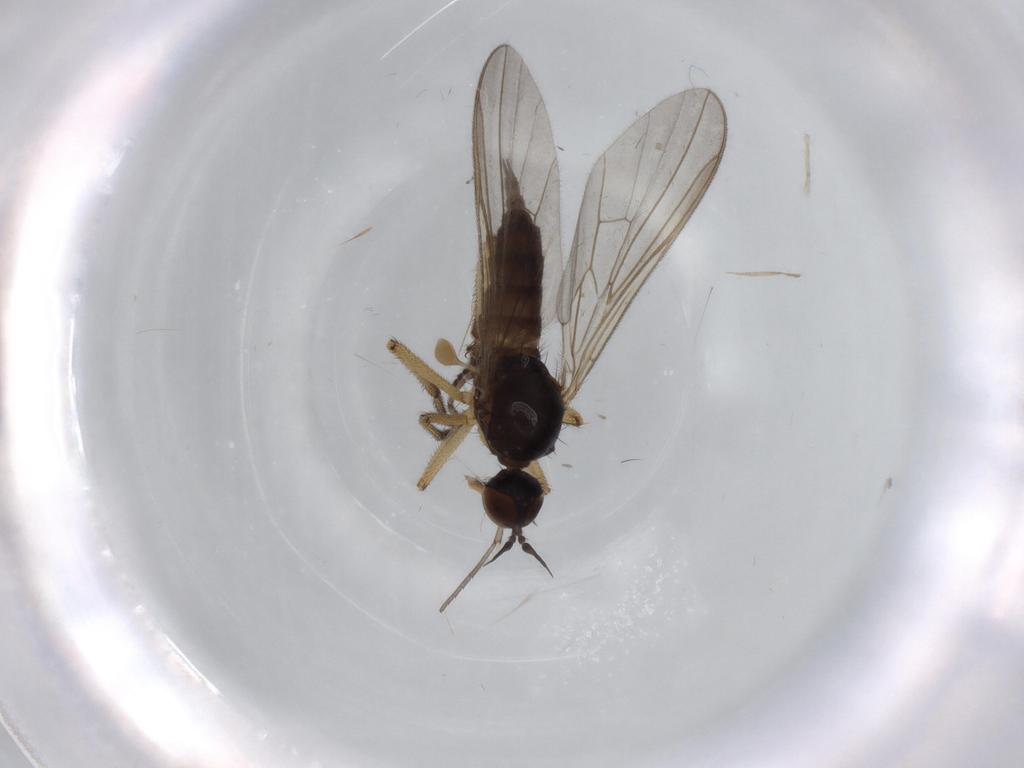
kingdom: Animalia
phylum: Arthropoda
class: Insecta
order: Diptera
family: Empididae
